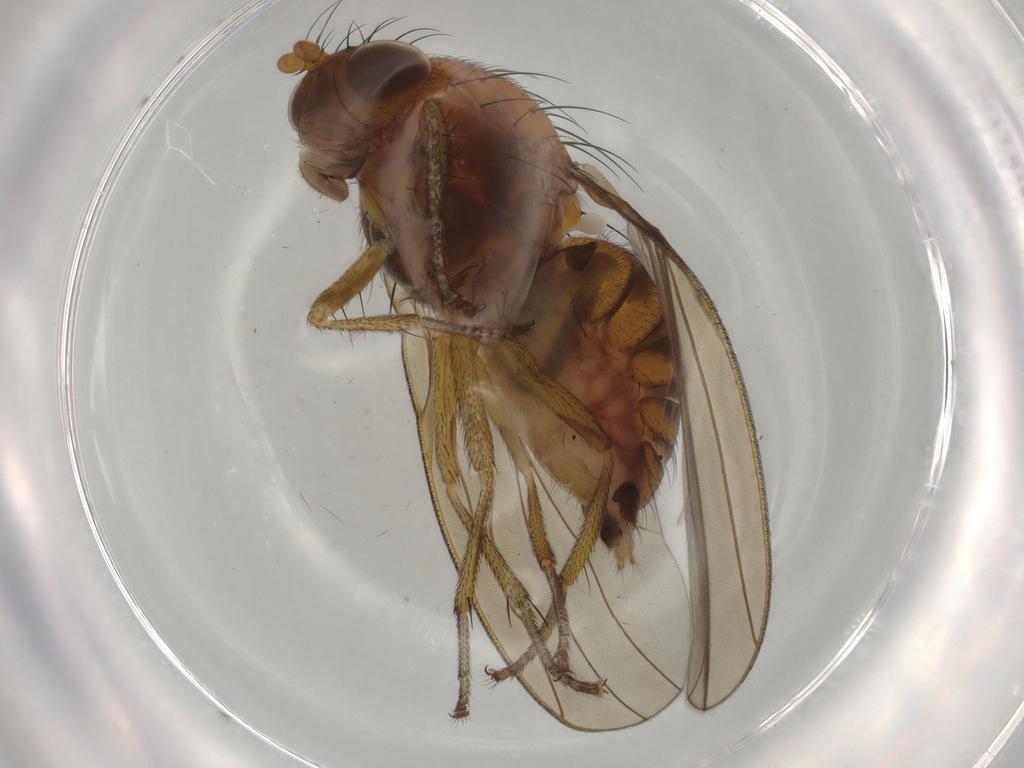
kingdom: Animalia
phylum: Arthropoda
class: Insecta
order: Diptera
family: Lauxaniidae
